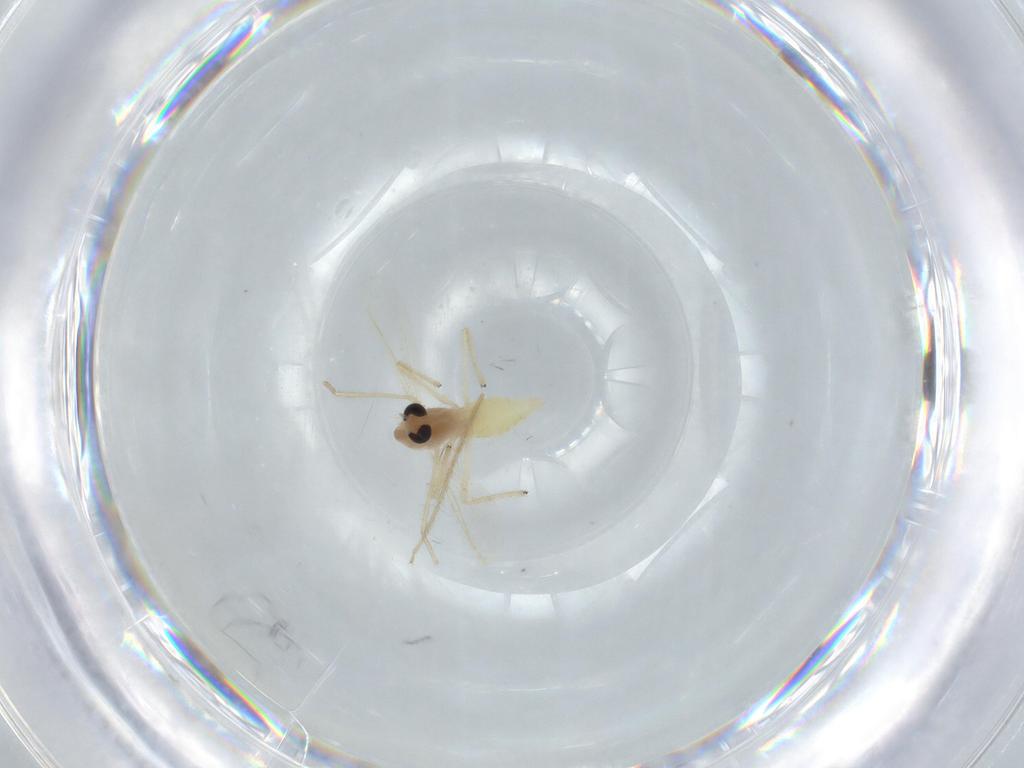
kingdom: Animalia
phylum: Arthropoda
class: Insecta
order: Diptera
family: Chironomidae
